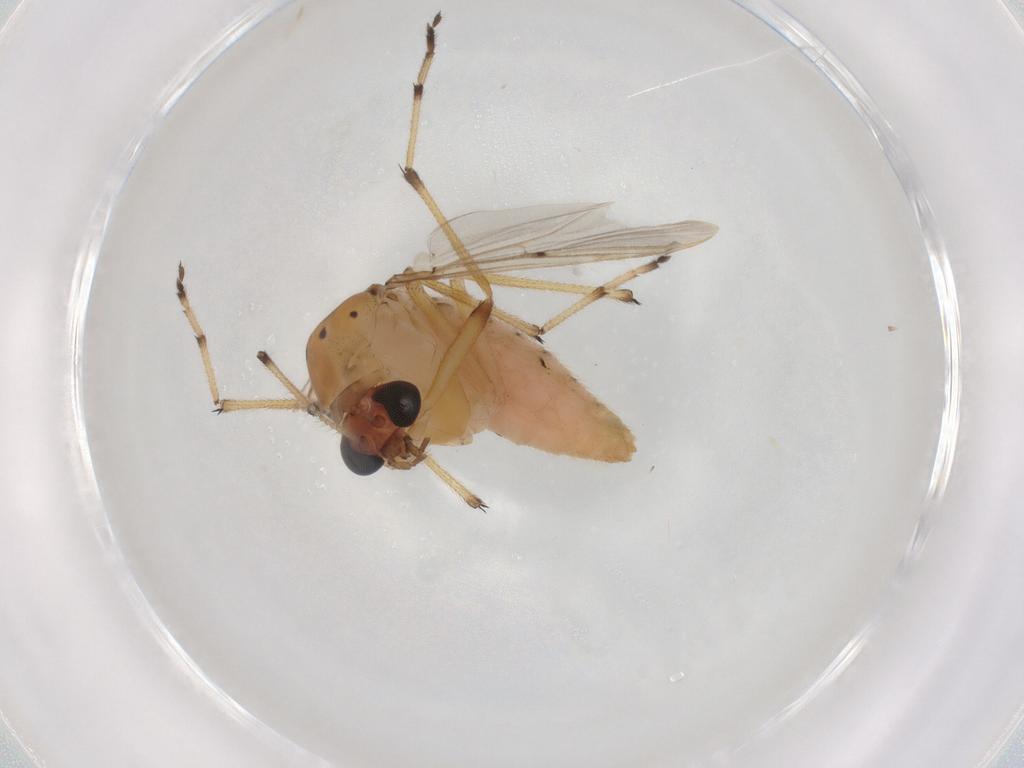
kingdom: Animalia
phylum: Arthropoda
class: Insecta
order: Diptera
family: Chironomidae
